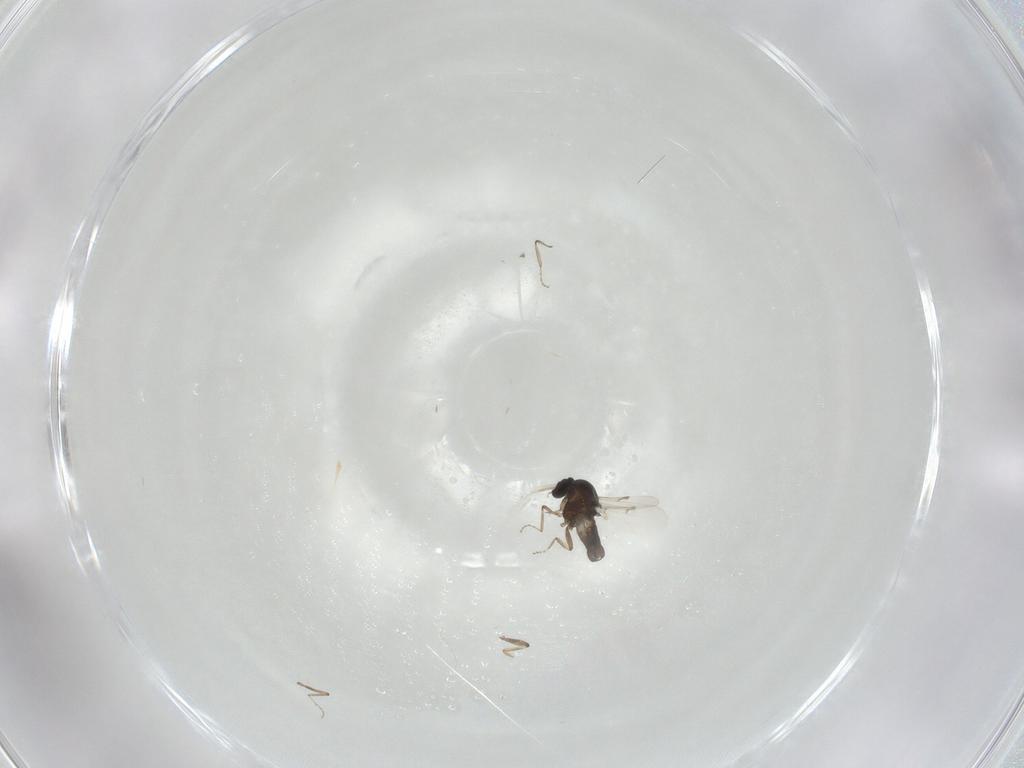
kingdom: Animalia
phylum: Arthropoda
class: Insecta
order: Diptera
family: Ceratopogonidae
